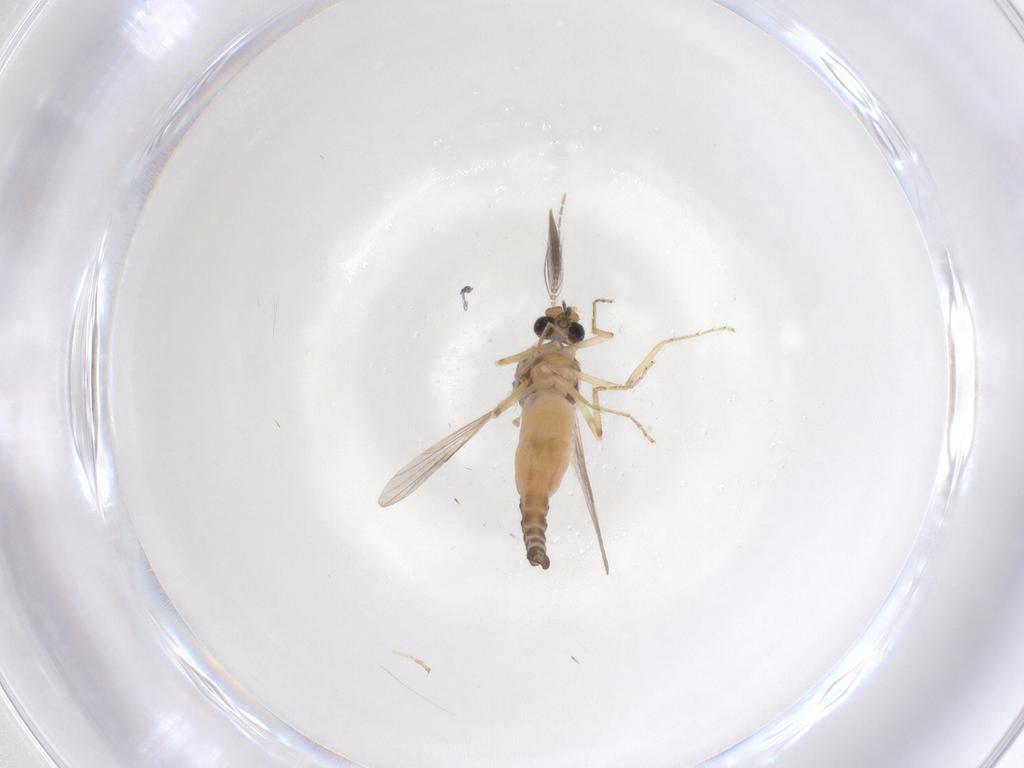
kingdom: Animalia
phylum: Arthropoda
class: Insecta
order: Diptera
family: Ceratopogonidae
